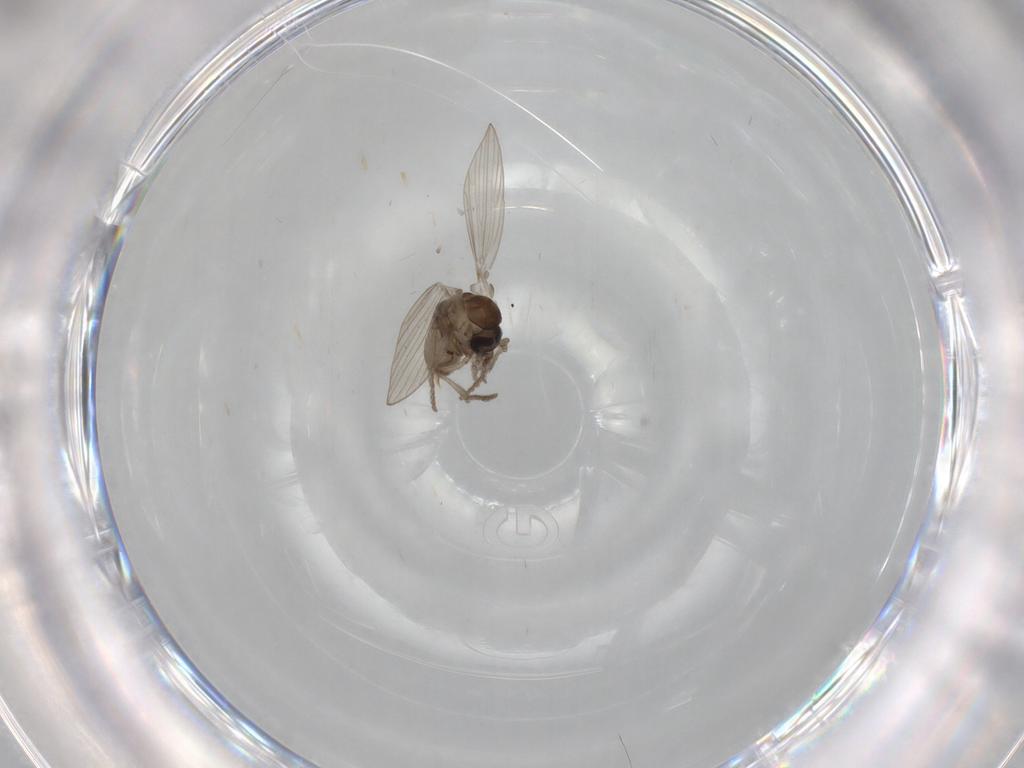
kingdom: Animalia
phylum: Arthropoda
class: Insecta
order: Diptera
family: Psychodidae
